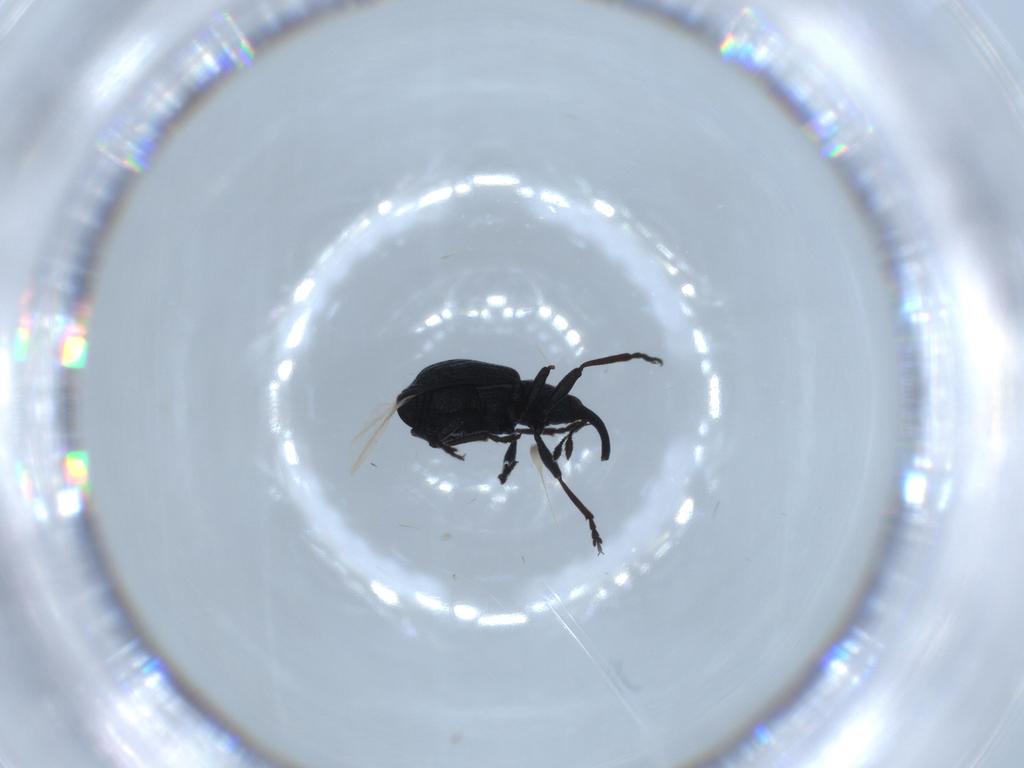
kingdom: Animalia
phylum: Arthropoda
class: Insecta
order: Coleoptera
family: Brentidae
